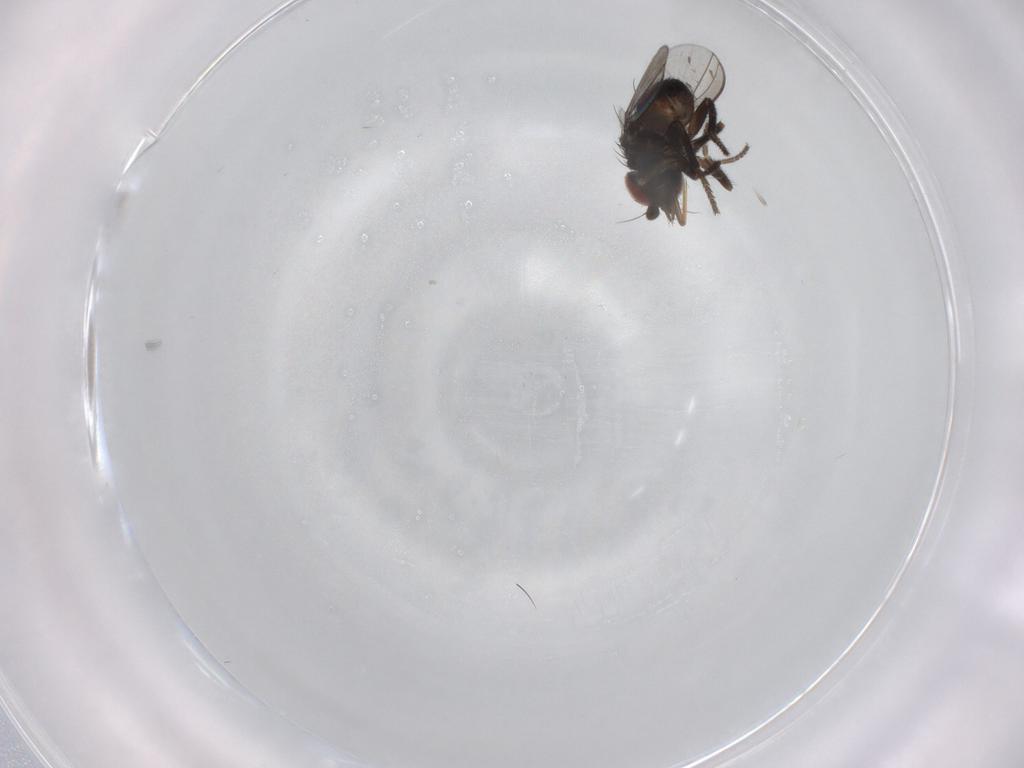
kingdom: Animalia
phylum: Arthropoda
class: Insecta
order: Diptera
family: Milichiidae
